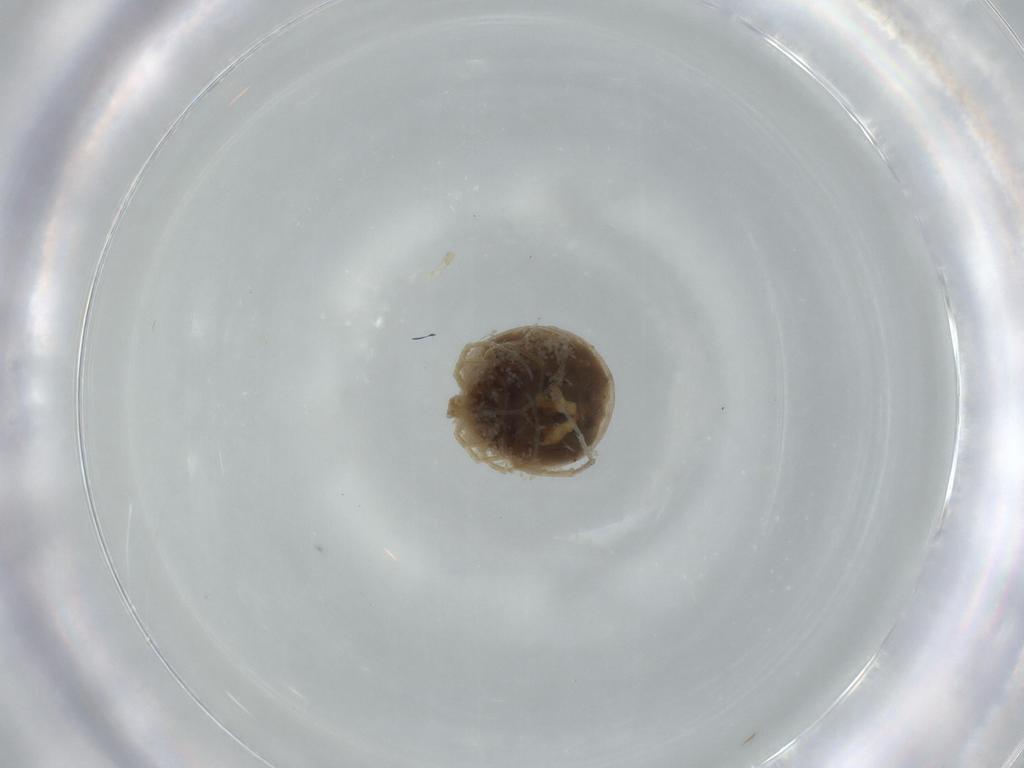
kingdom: Animalia
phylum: Arthropoda
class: Arachnida
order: Trombidiformes
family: Hygrobatidae
